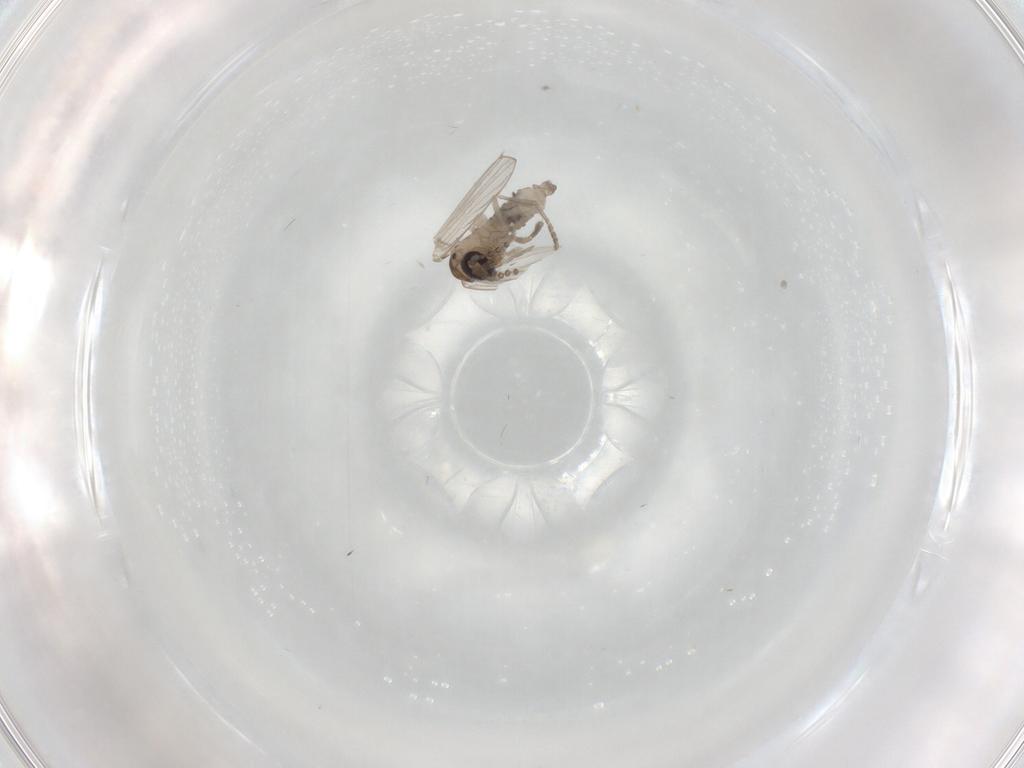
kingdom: Animalia
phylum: Arthropoda
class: Insecta
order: Diptera
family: Psychodidae
